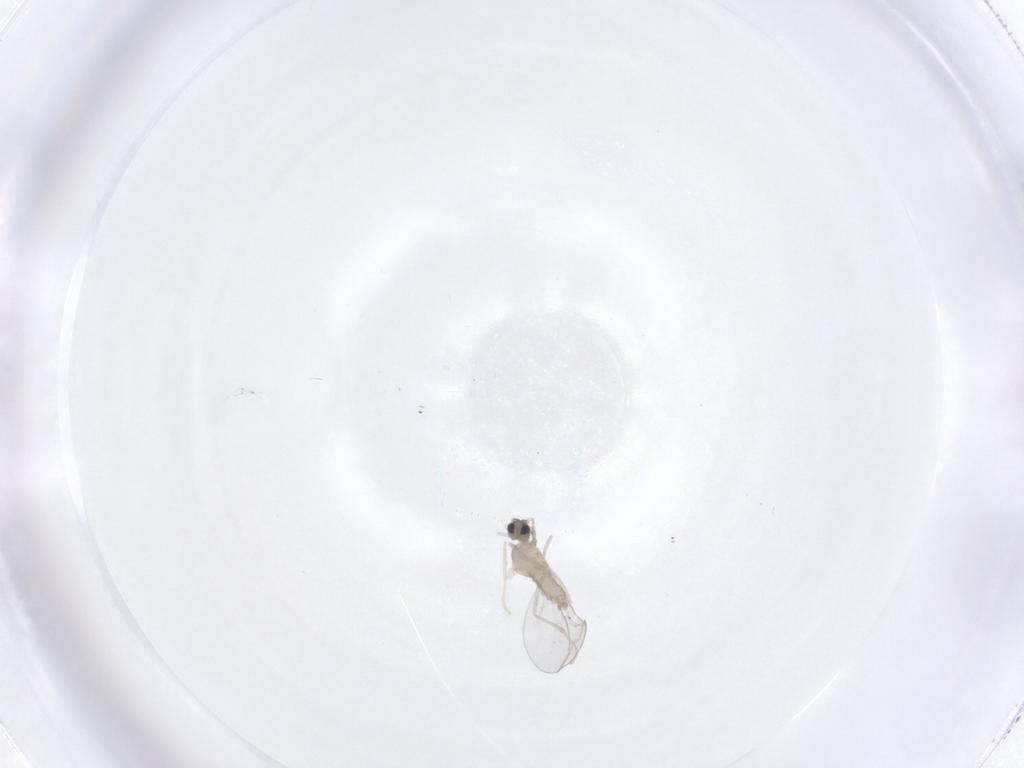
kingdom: Animalia
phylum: Arthropoda
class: Insecta
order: Diptera
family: Cecidomyiidae
